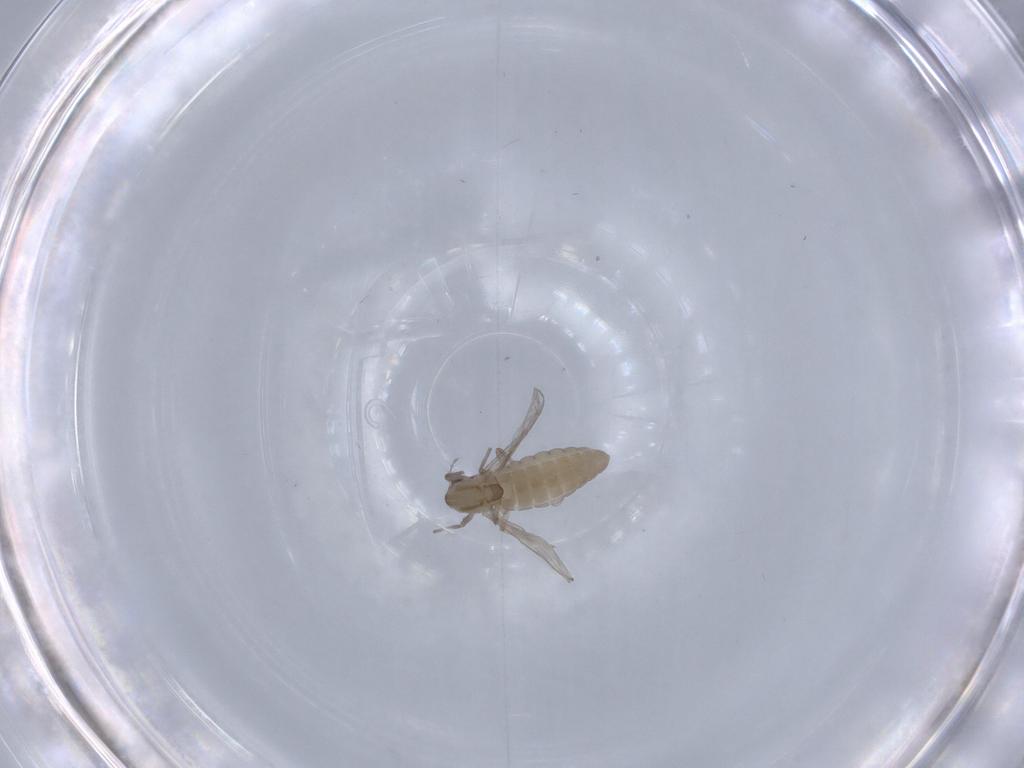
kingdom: Animalia
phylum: Arthropoda
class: Insecta
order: Diptera
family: Chironomidae
